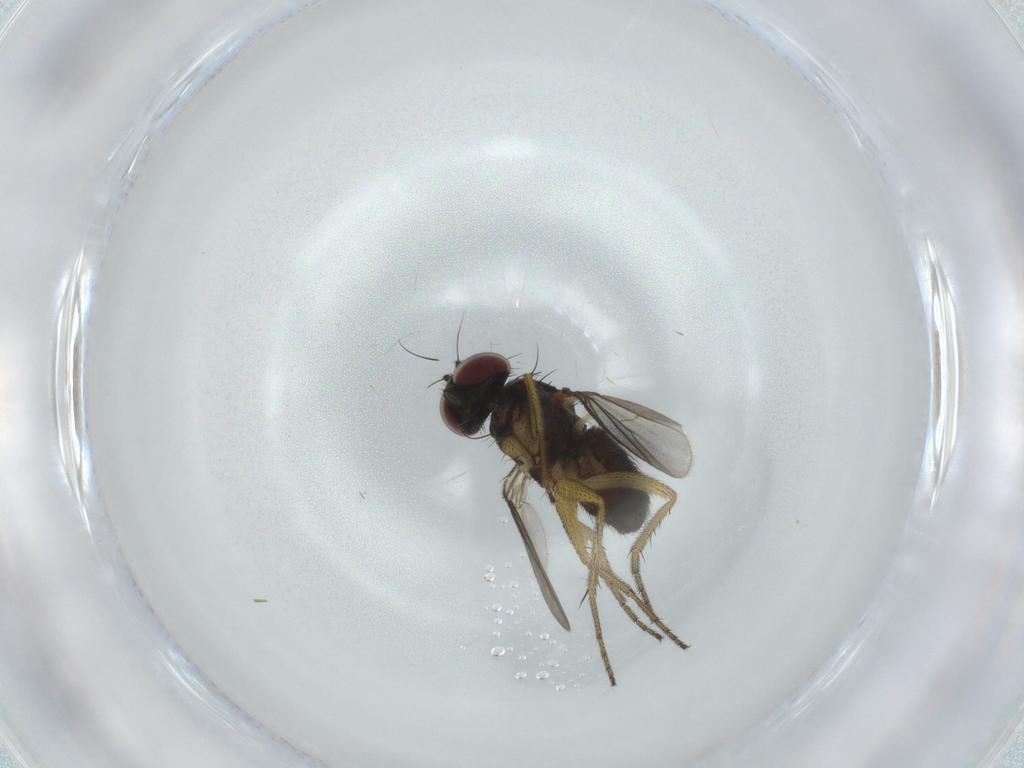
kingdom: Animalia
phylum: Arthropoda
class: Insecta
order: Diptera
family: Dolichopodidae
